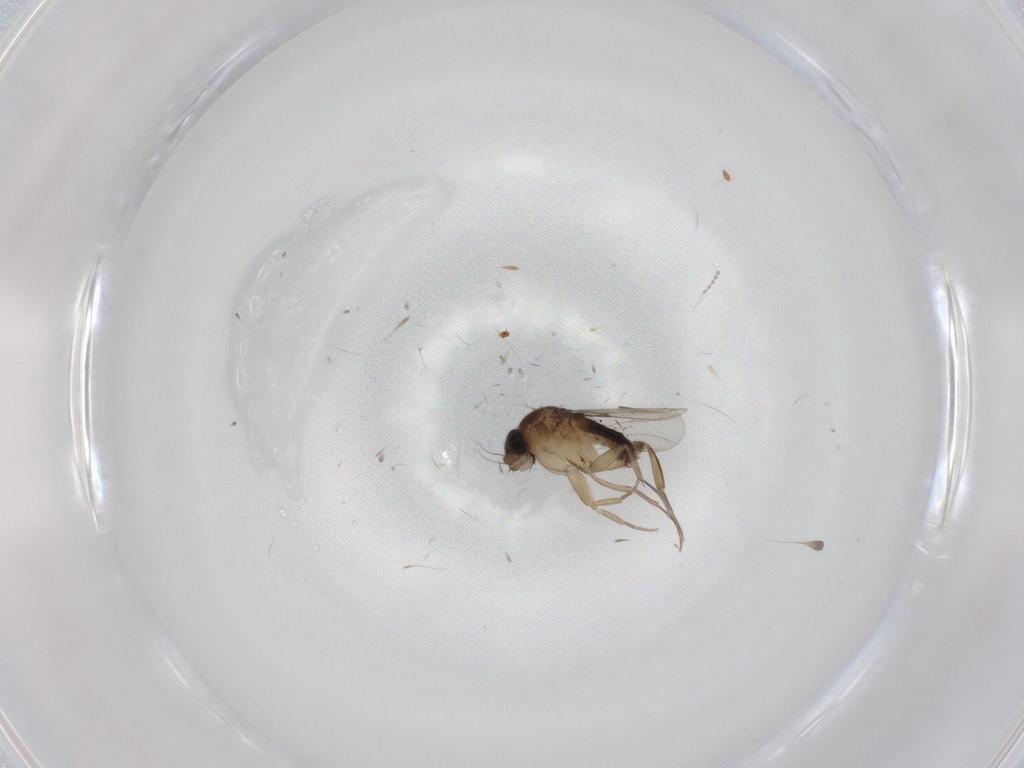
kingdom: Animalia
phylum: Arthropoda
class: Insecta
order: Diptera
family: Phoridae
